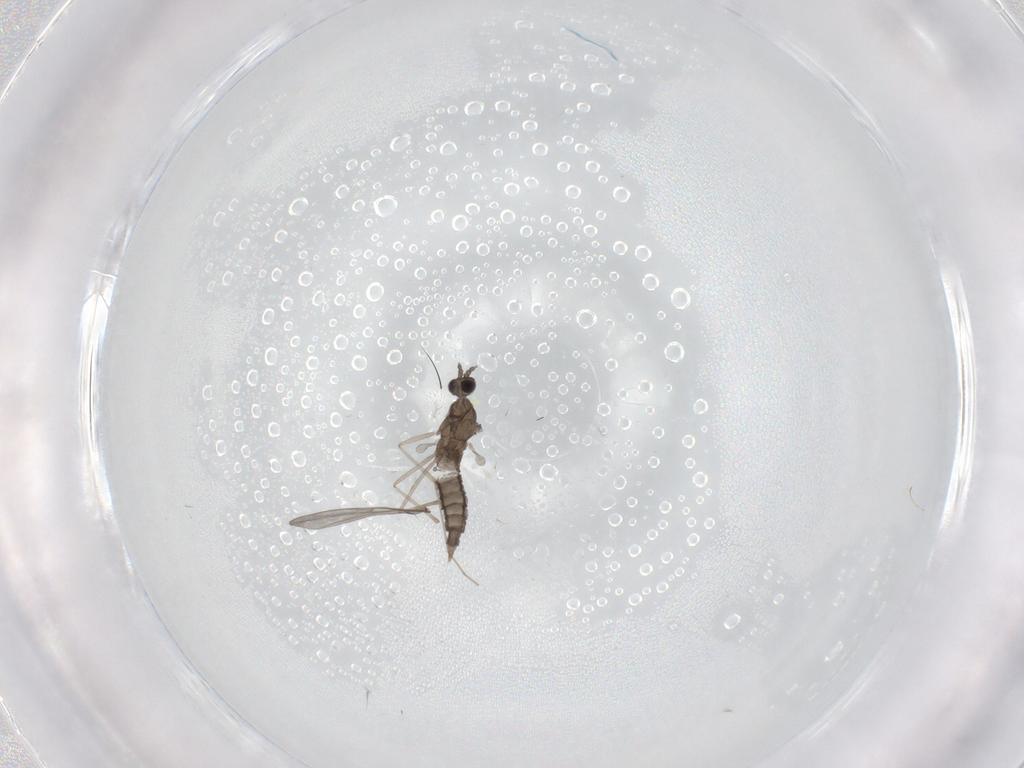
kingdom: Animalia
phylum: Arthropoda
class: Insecta
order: Diptera
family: Cecidomyiidae
